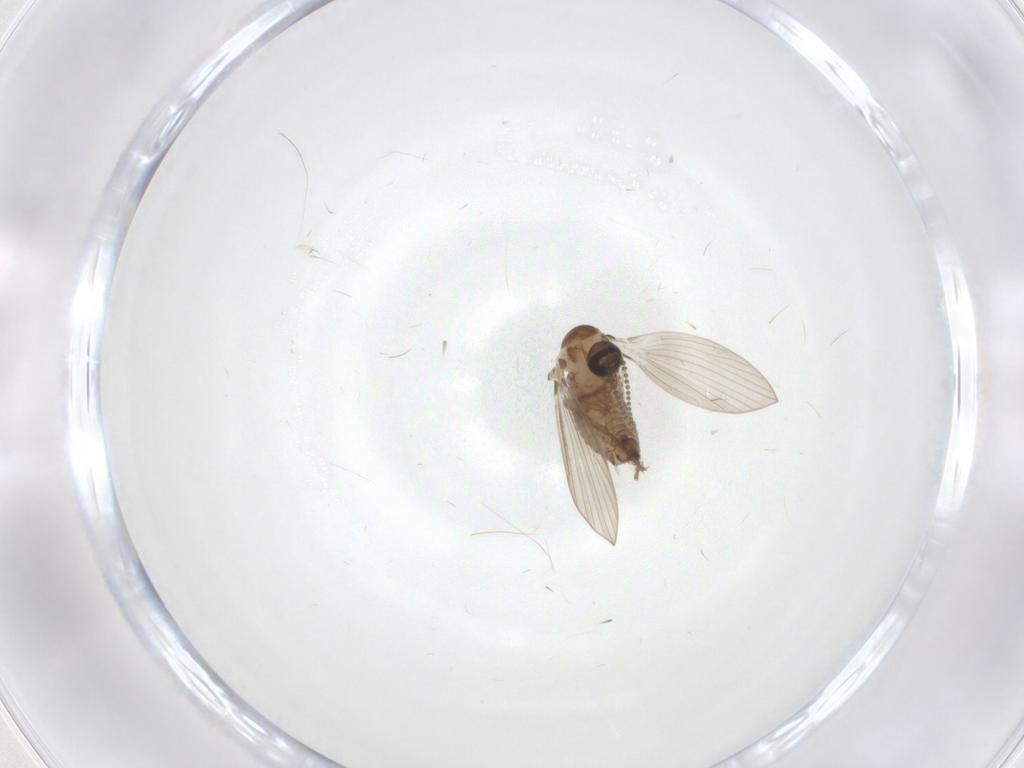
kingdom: Animalia
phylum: Arthropoda
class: Insecta
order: Diptera
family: Psychodidae
